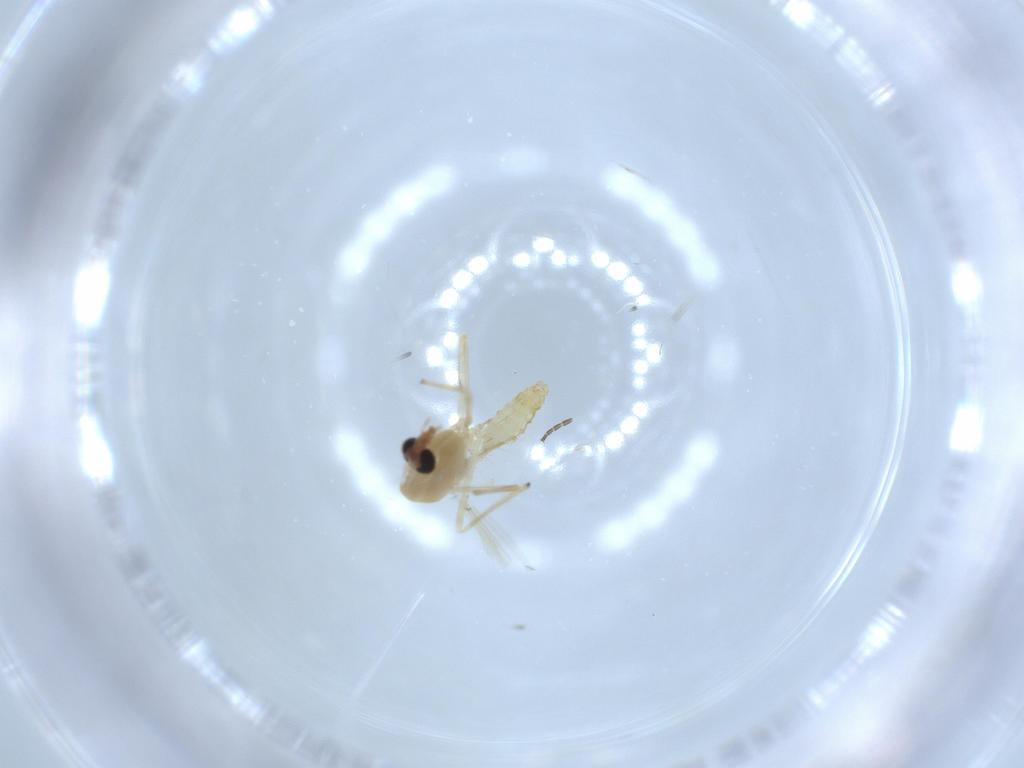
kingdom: Animalia
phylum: Arthropoda
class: Insecta
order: Diptera
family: Chironomidae
